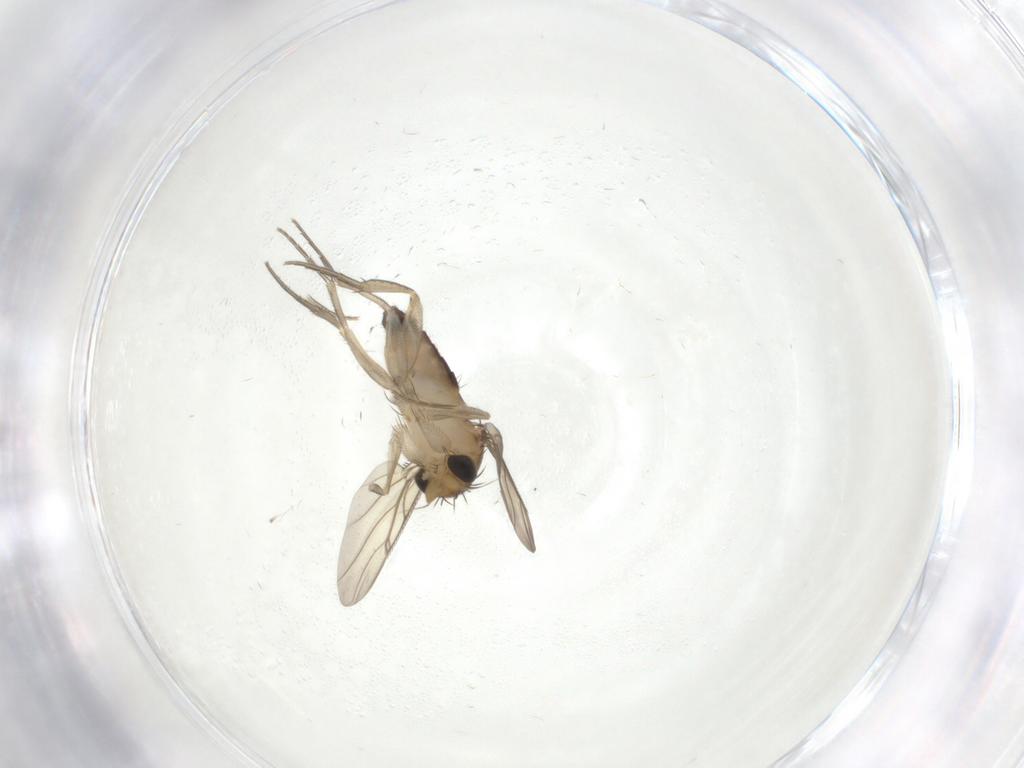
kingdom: Animalia
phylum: Arthropoda
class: Insecta
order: Diptera
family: Phoridae
